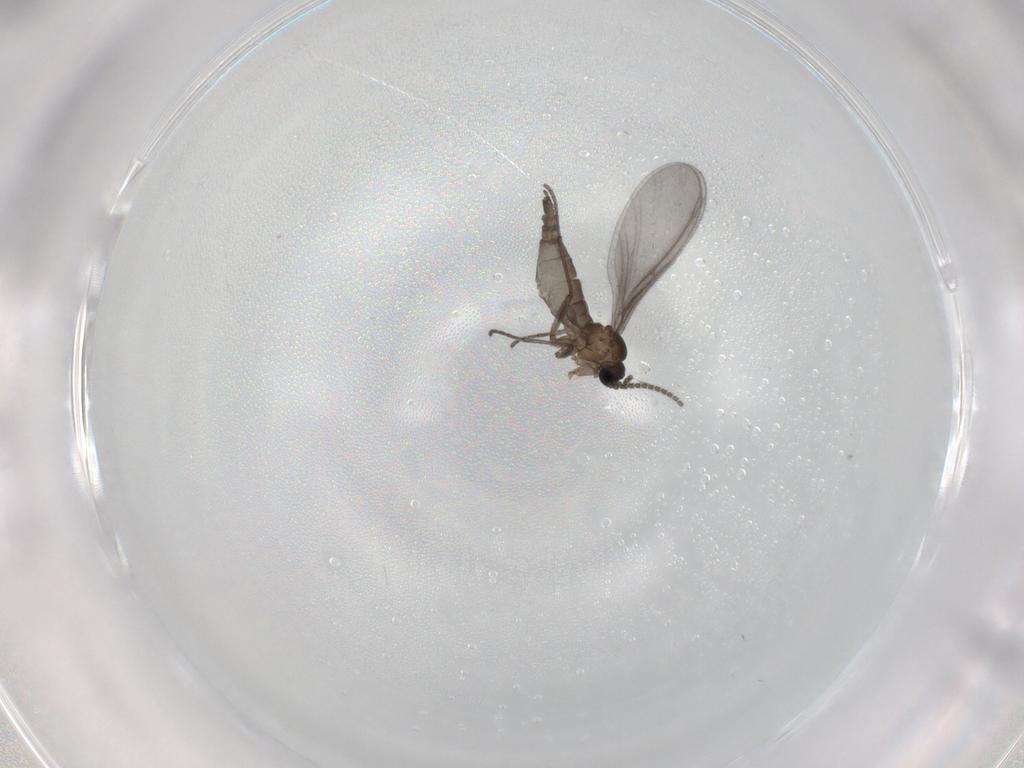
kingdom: Animalia
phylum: Arthropoda
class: Insecta
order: Diptera
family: Sciaridae
